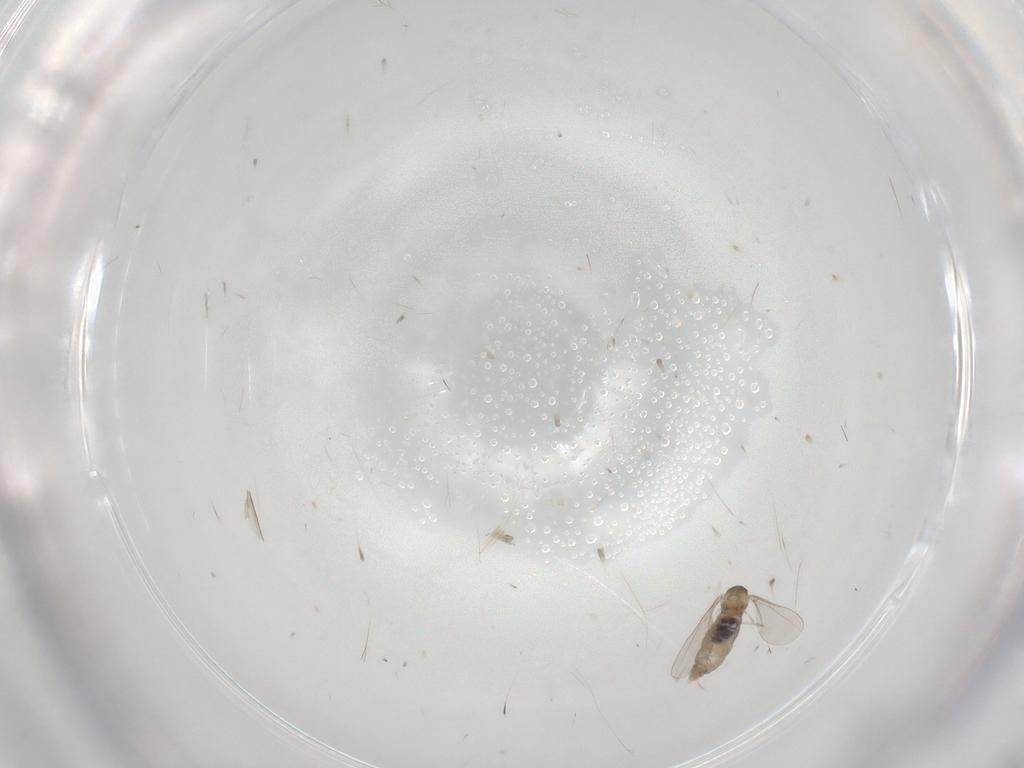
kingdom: Animalia
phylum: Arthropoda
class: Insecta
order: Diptera
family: Cecidomyiidae
